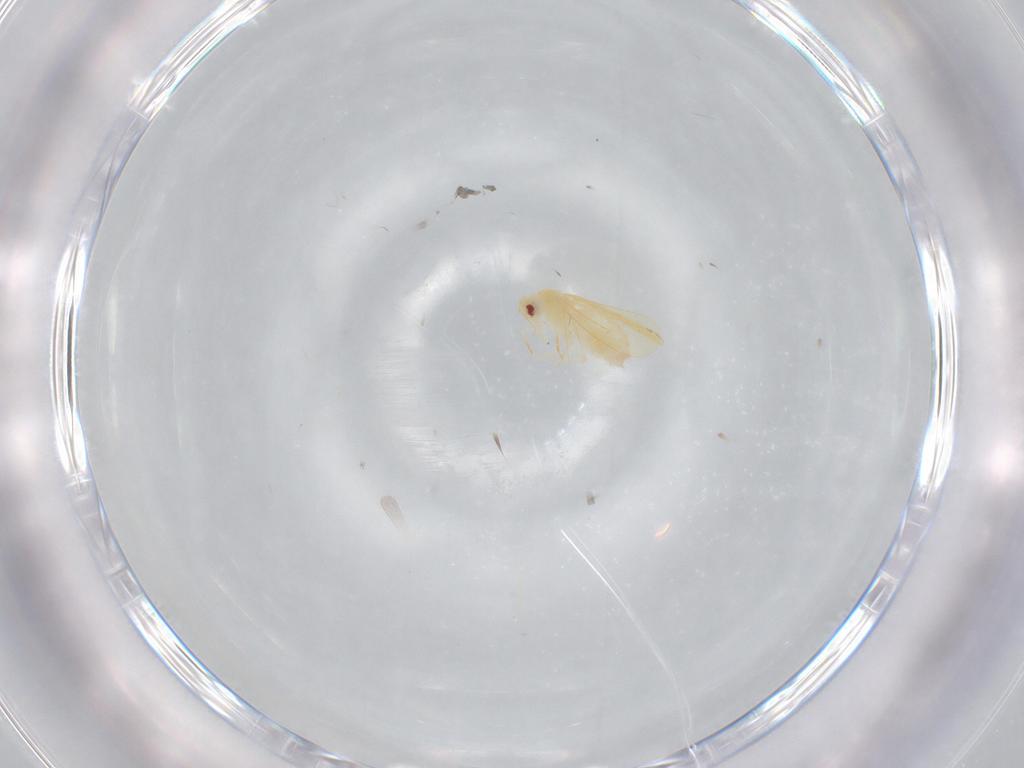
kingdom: Animalia
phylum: Arthropoda
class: Insecta
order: Hemiptera
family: Aleyrodidae
